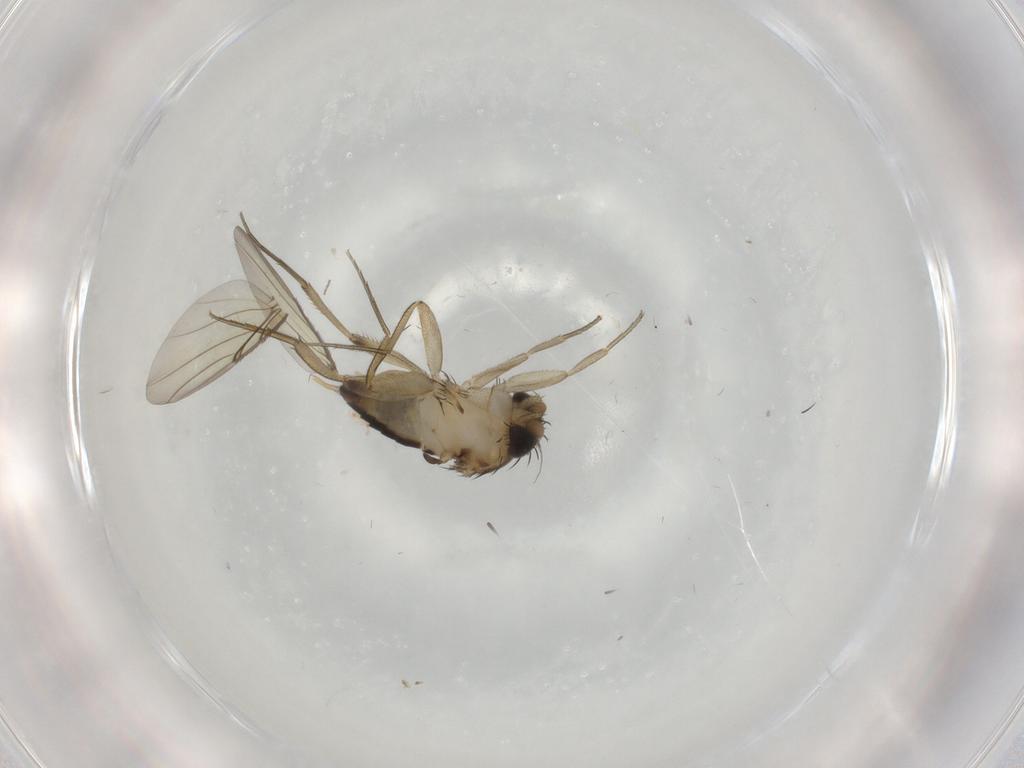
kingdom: Animalia
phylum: Arthropoda
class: Insecta
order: Diptera
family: Phoridae
